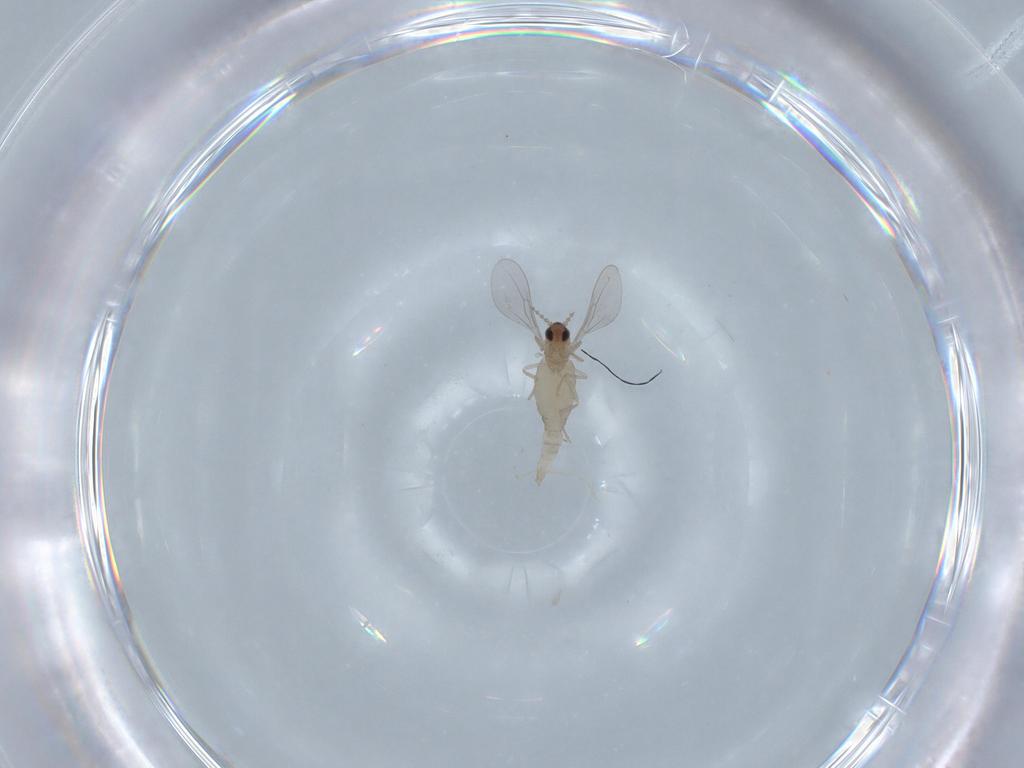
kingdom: Animalia
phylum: Arthropoda
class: Insecta
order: Diptera
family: Cecidomyiidae
